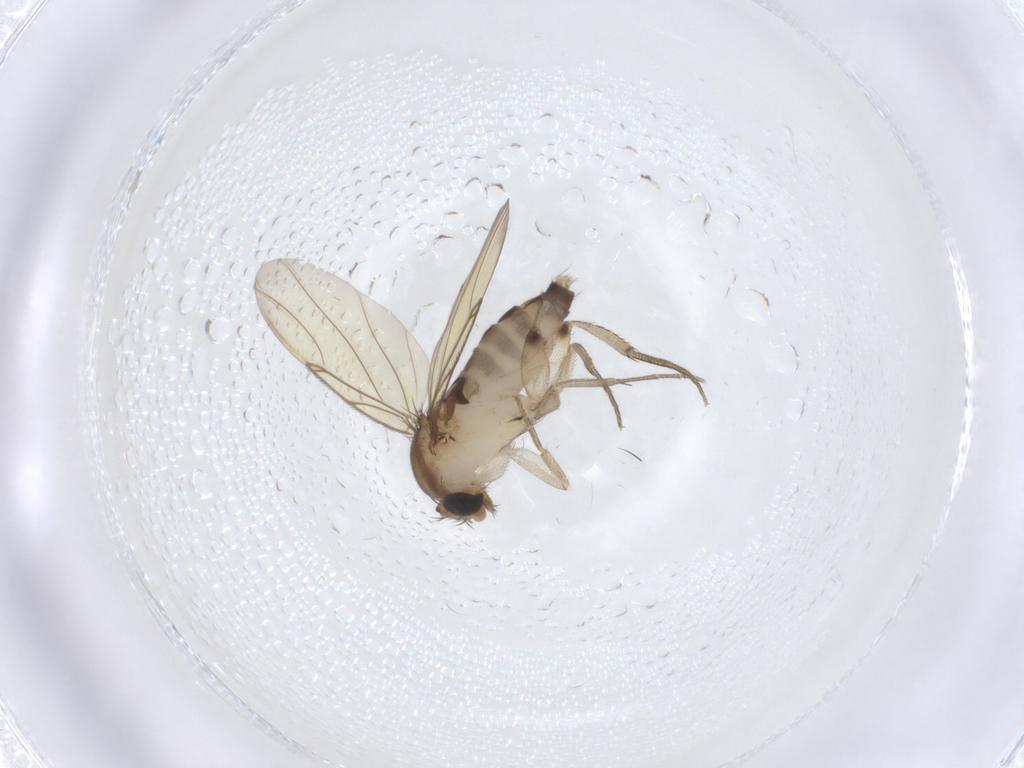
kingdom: Animalia
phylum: Arthropoda
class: Insecta
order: Diptera
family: Phoridae
